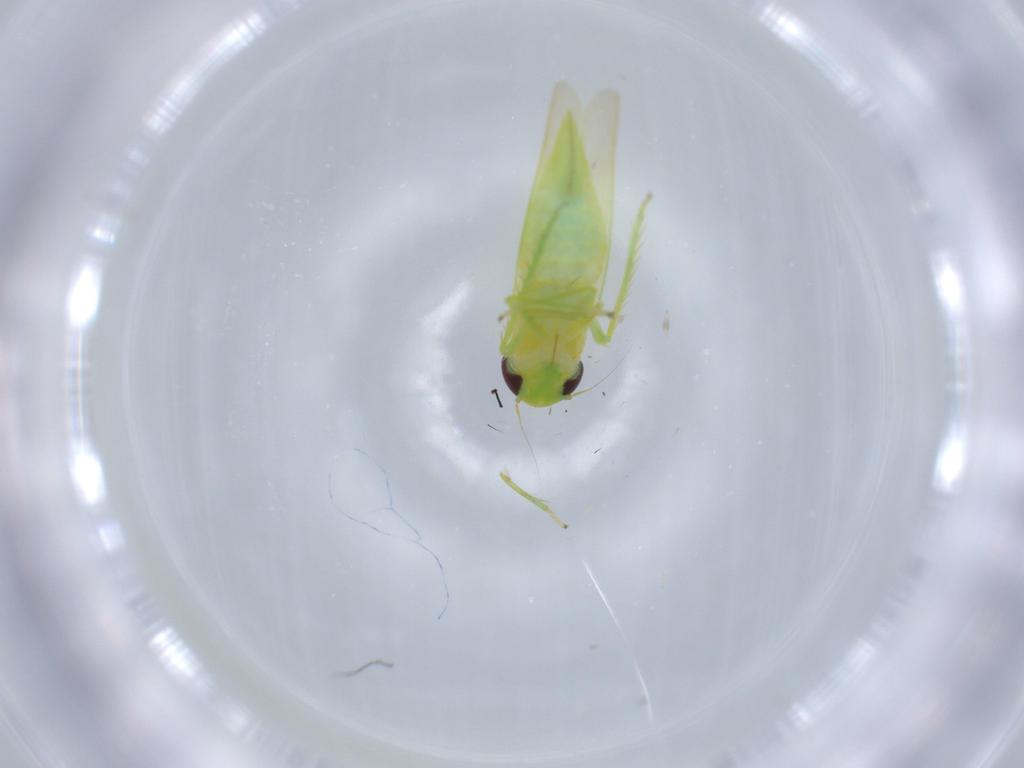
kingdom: Animalia
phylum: Arthropoda
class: Insecta
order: Hemiptera
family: Cicadellidae
